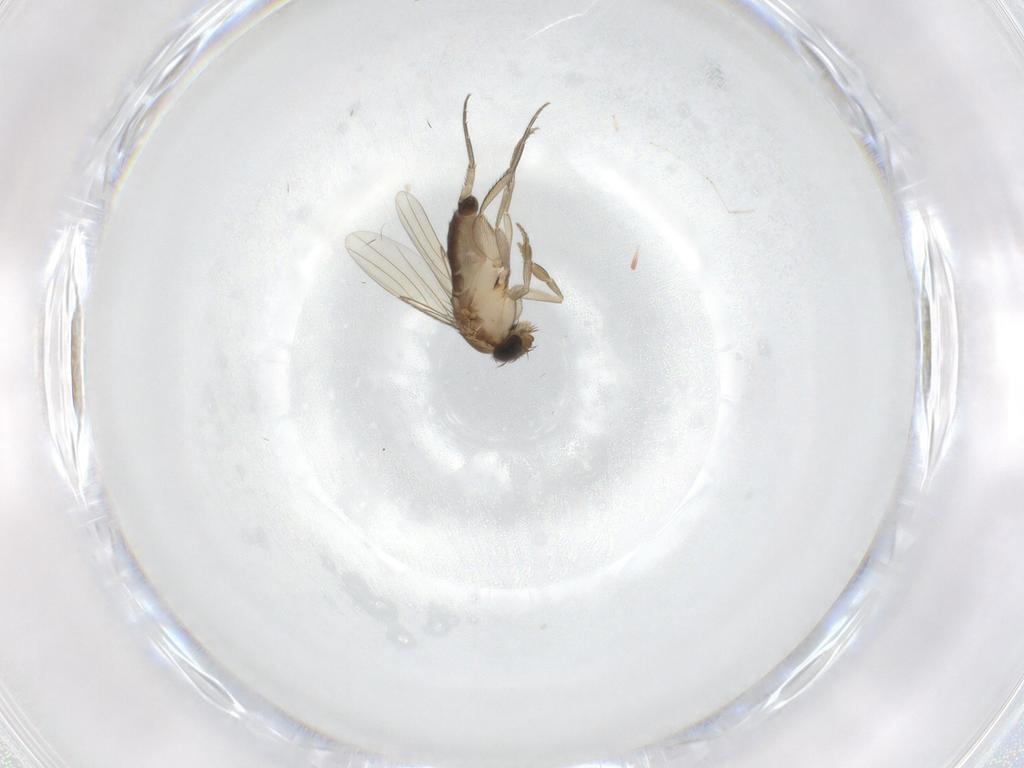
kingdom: Animalia
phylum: Arthropoda
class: Insecta
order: Diptera
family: Phoridae
